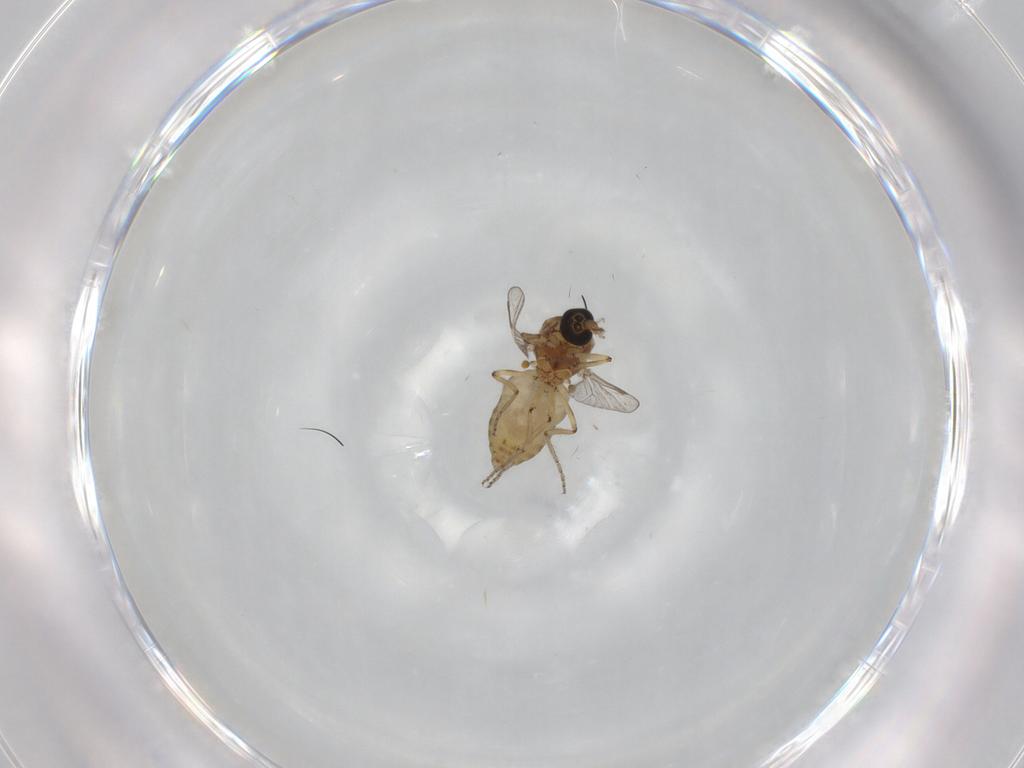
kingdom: Animalia
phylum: Arthropoda
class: Insecta
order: Diptera
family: Ceratopogonidae
